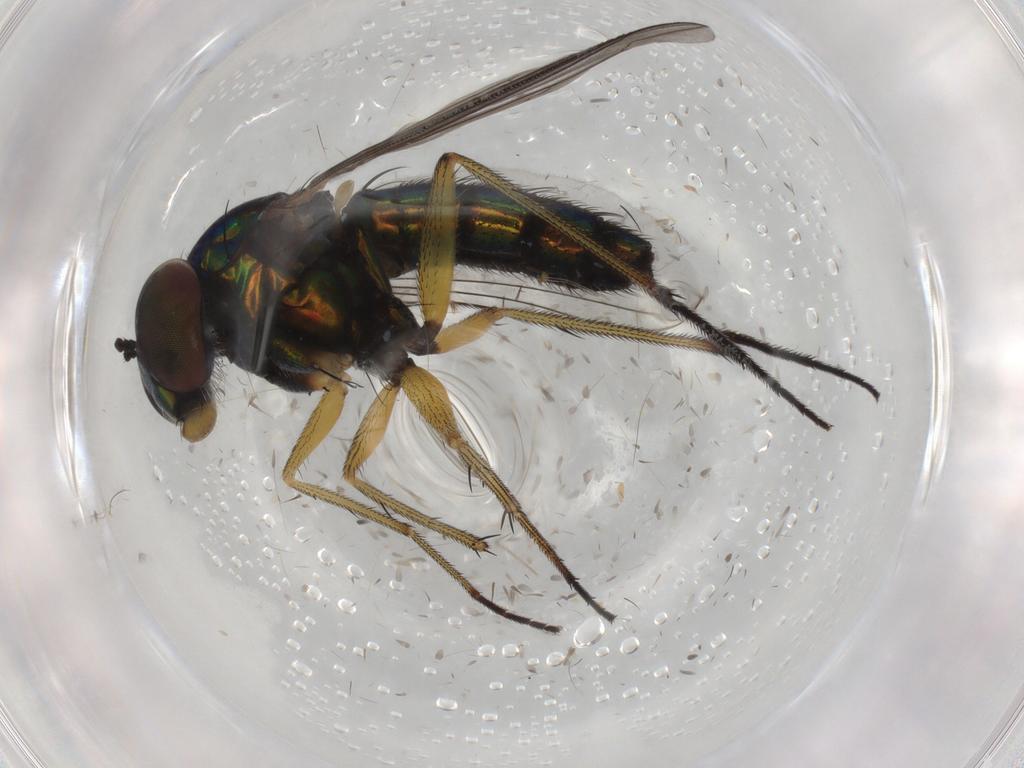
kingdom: Animalia
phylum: Arthropoda
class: Insecta
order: Diptera
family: Dolichopodidae
